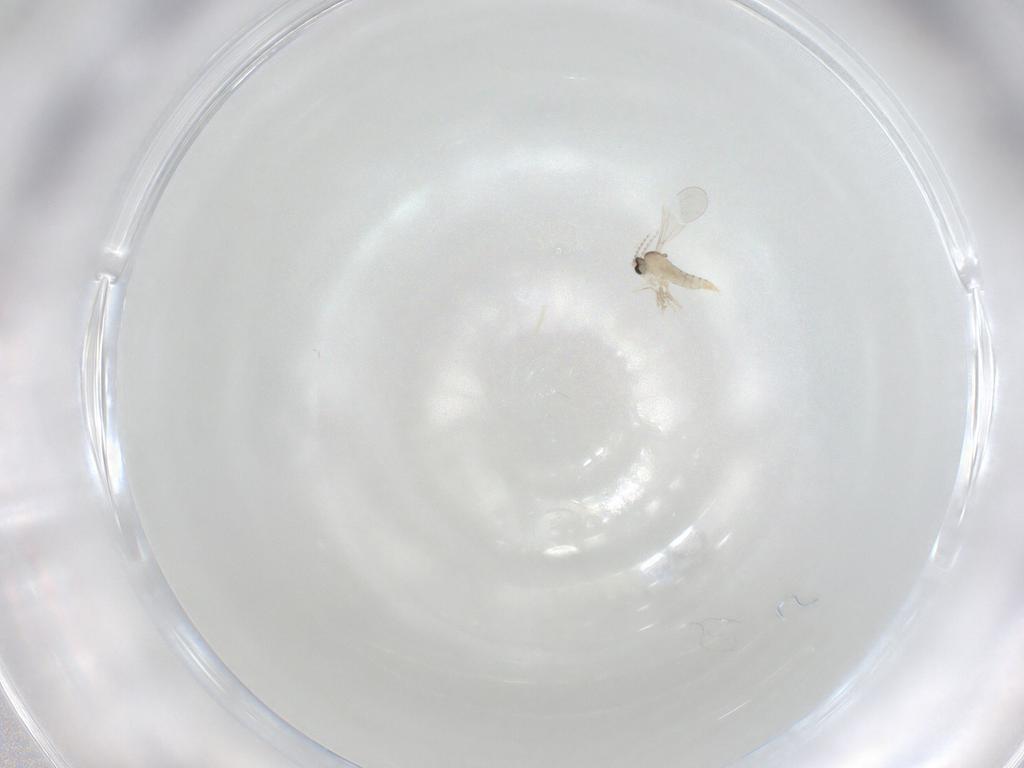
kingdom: Animalia
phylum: Arthropoda
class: Insecta
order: Diptera
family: Cecidomyiidae
